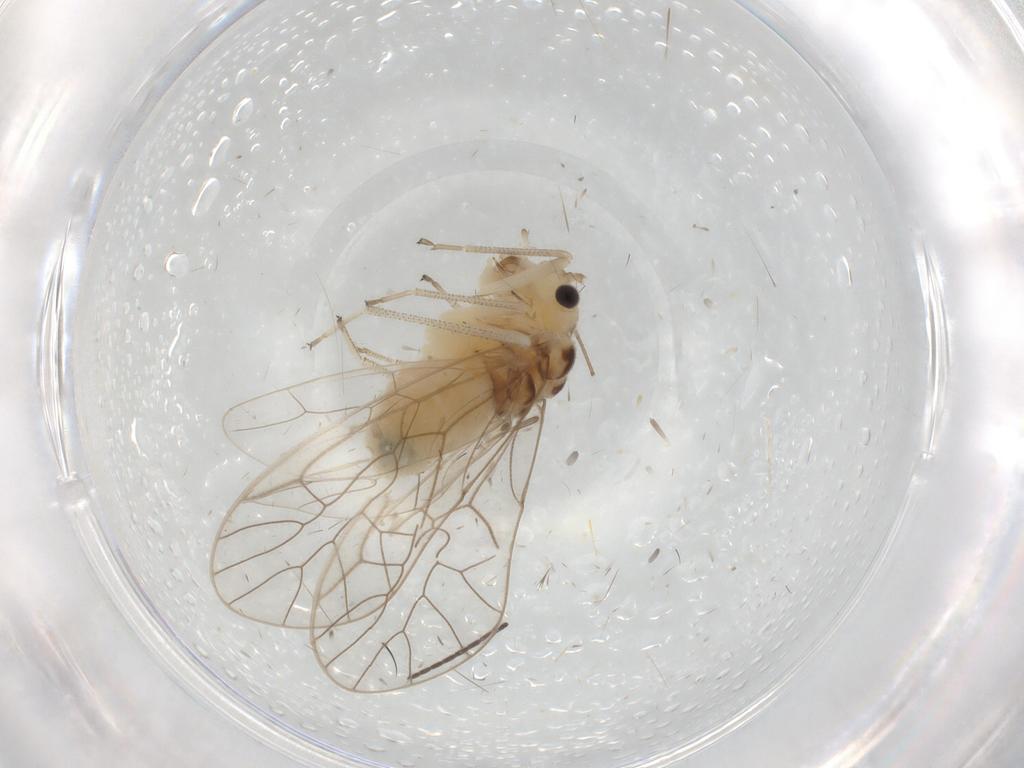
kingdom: Animalia
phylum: Arthropoda
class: Insecta
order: Psocodea
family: Stenopsocidae
